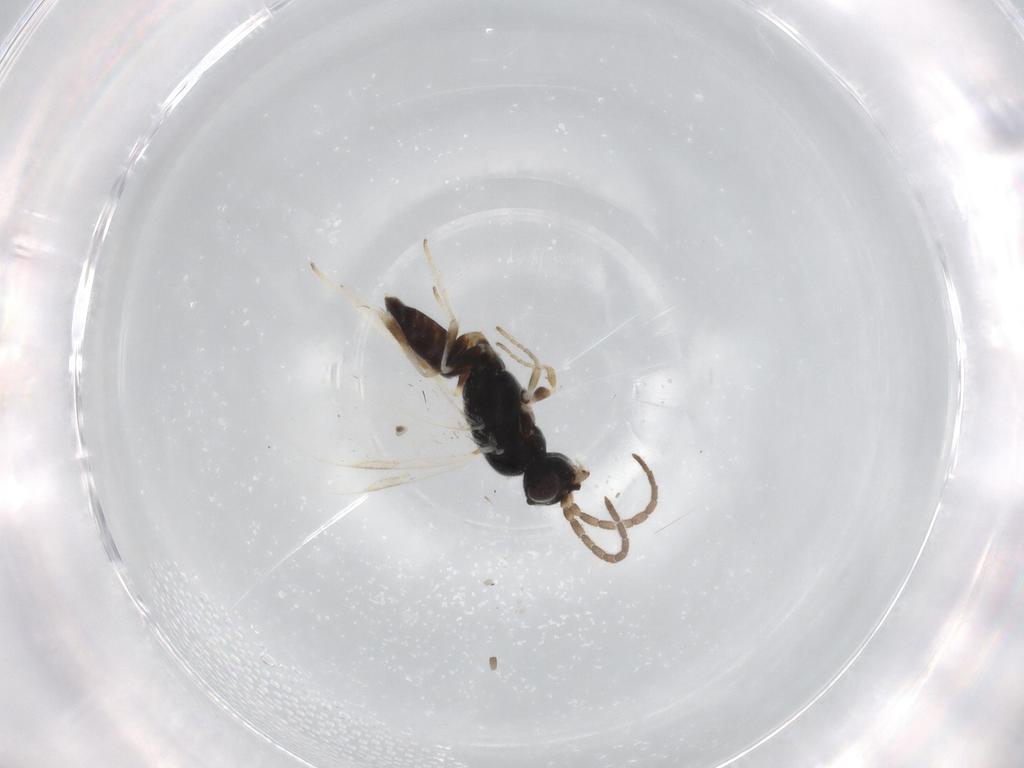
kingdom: Animalia
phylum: Arthropoda
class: Insecta
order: Hymenoptera
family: Dryinidae
